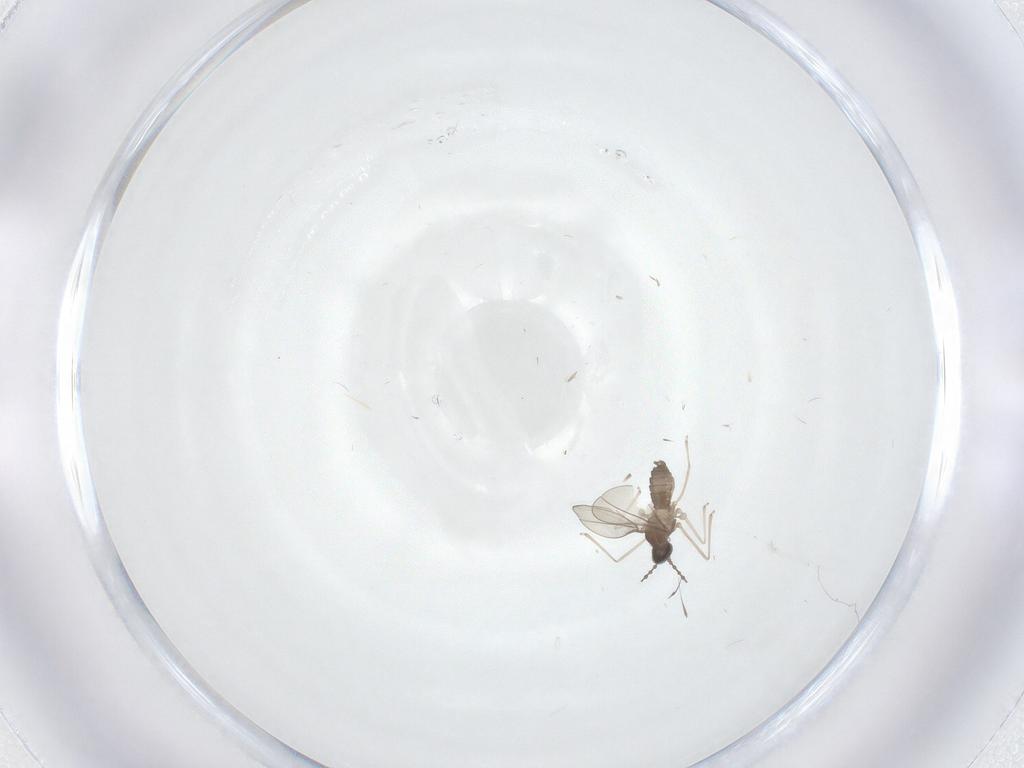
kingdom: Animalia
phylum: Arthropoda
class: Insecta
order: Diptera
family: Cecidomyiidae
